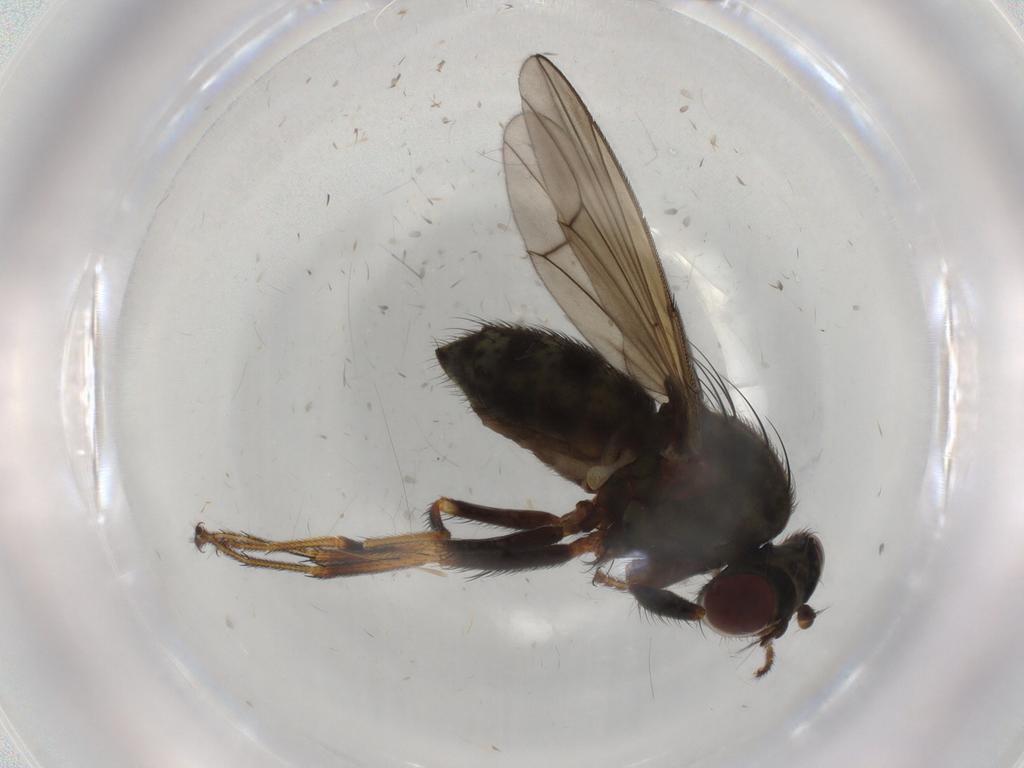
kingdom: Animalia
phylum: Arthropoda
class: Insecta
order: Diptera
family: Ephydridae
